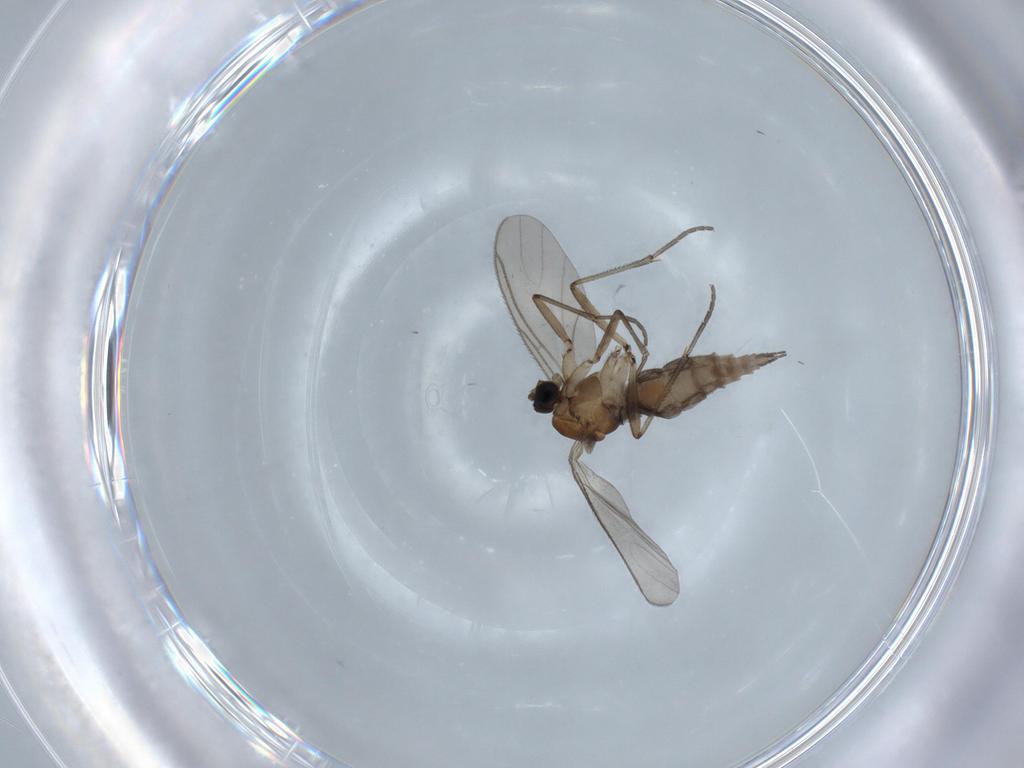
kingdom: Animalia
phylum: Arthropoda
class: Insecta
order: Diptera
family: Sciaridae
